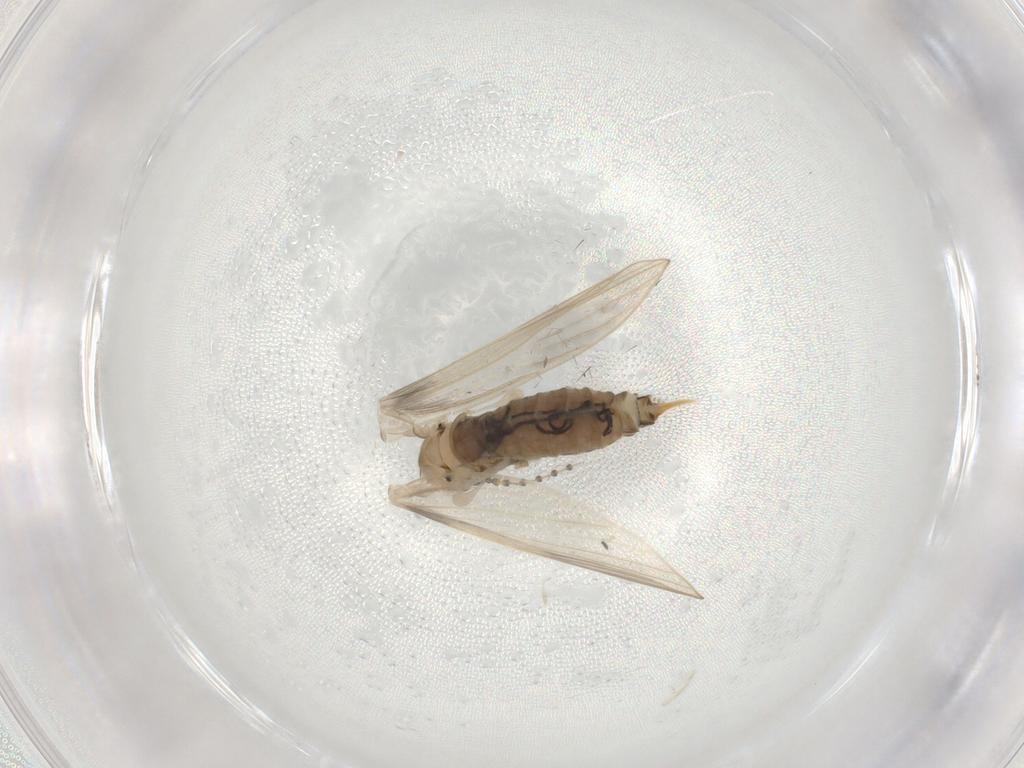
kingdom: Animalia
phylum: Arthropoda
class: Insecta
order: Diptera
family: Psychodidae
